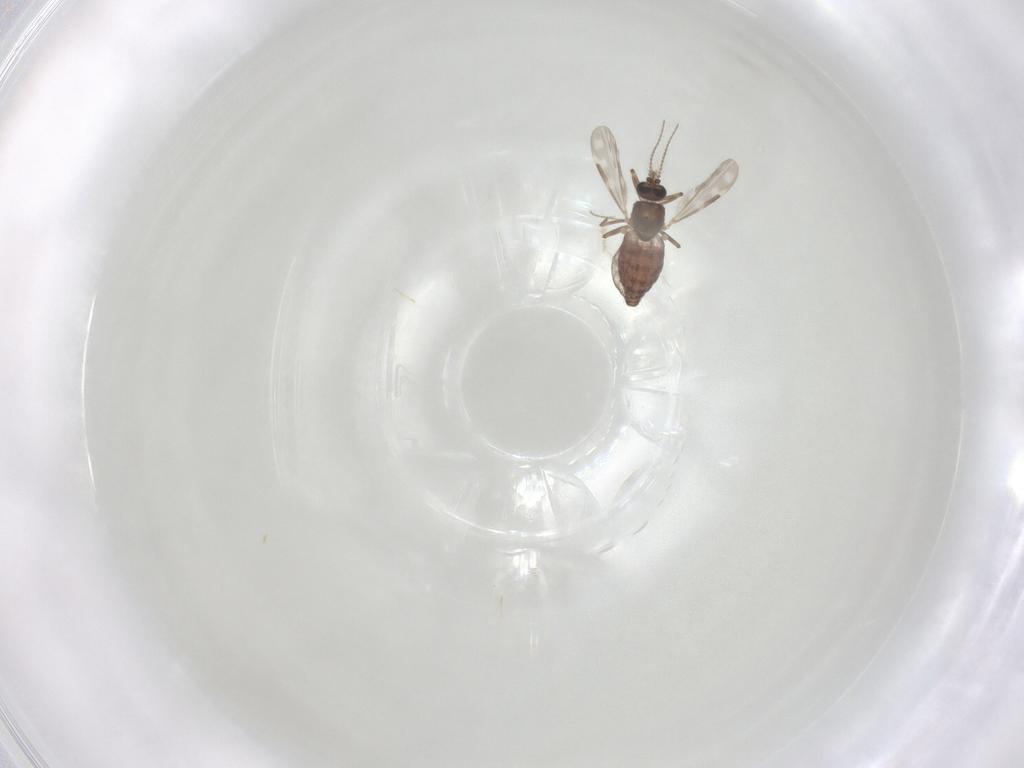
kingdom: Animalia
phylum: Arthropoda
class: Insecta
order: Diptera
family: Ceratopogonidae
